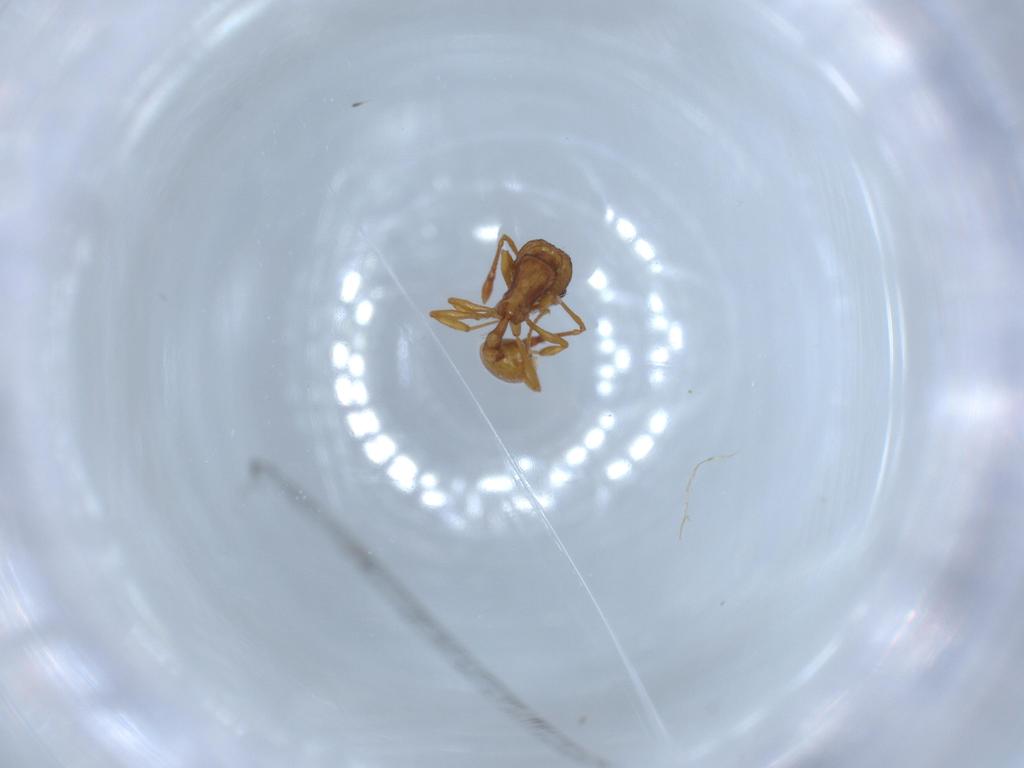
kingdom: Animalia
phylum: Arthropoda
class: Insecta
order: Hymenoptera
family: Formicidae
